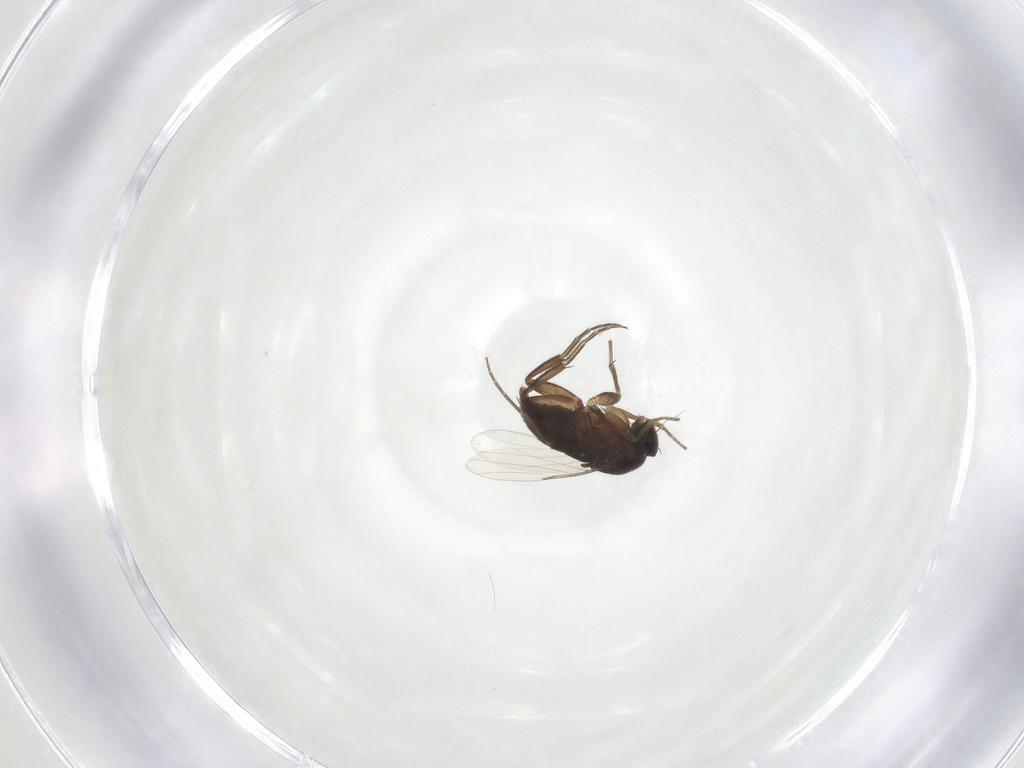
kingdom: Animalia
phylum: Arthropoda
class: Insecta
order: Diptera
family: Phoridae
